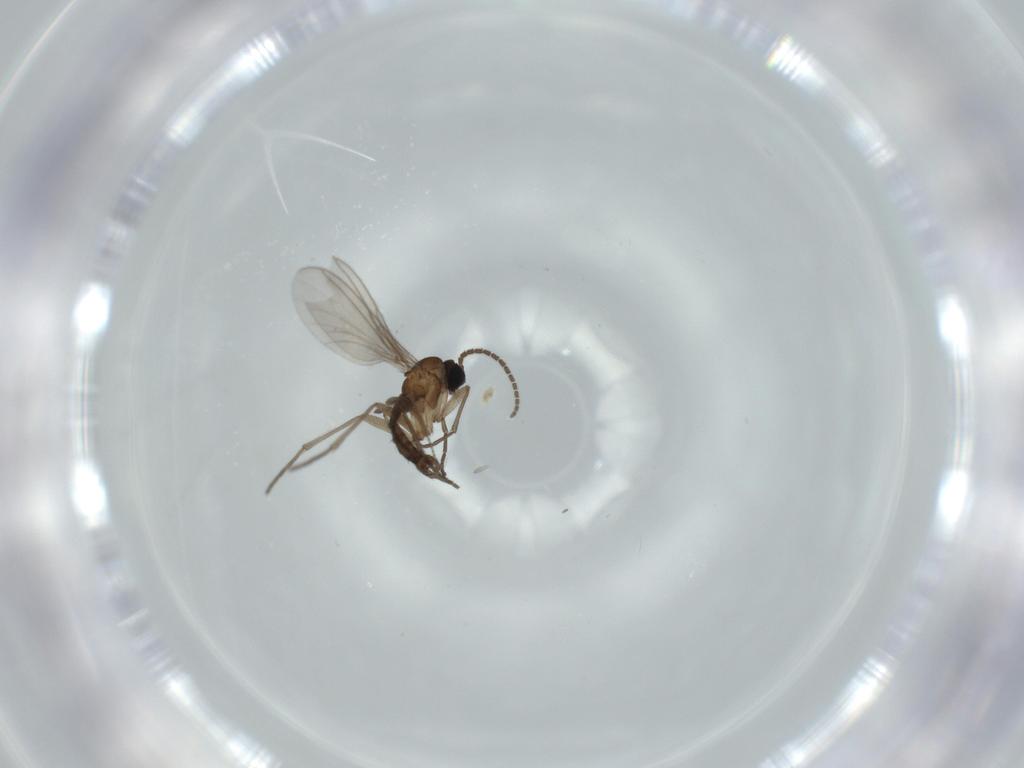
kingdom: Animalia
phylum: Arthropoda
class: Insecta
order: Diptera
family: Chironomidae
